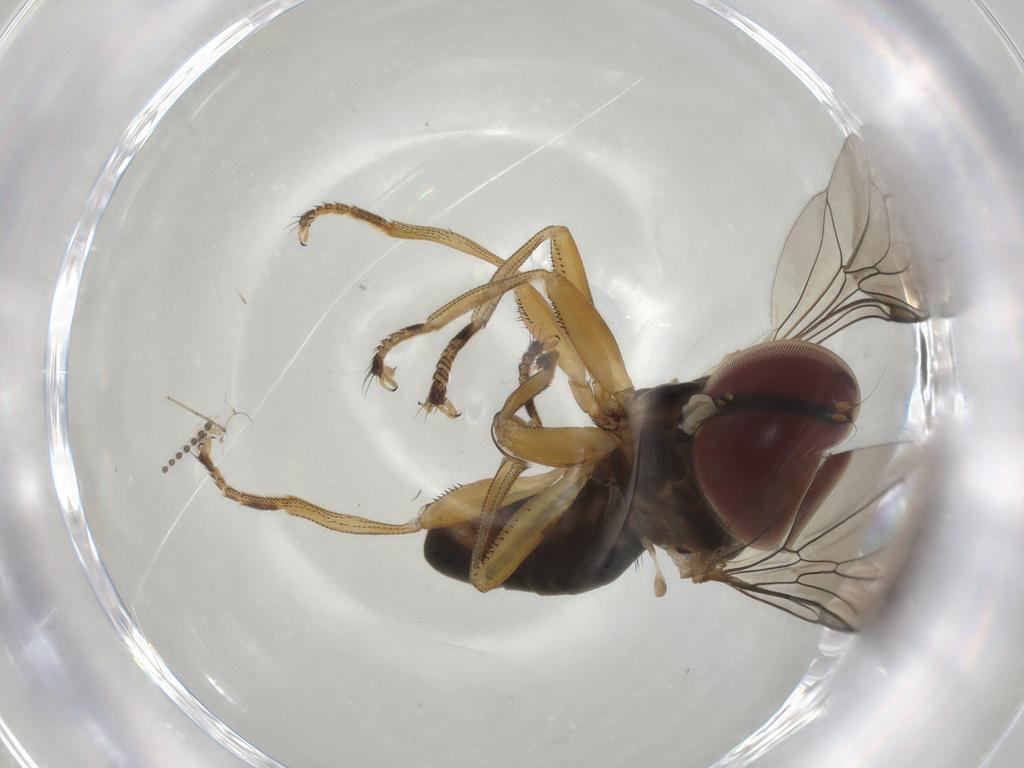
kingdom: Animalia
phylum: Arthropoda
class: Insecta
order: Diptera
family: Pipunculidae
